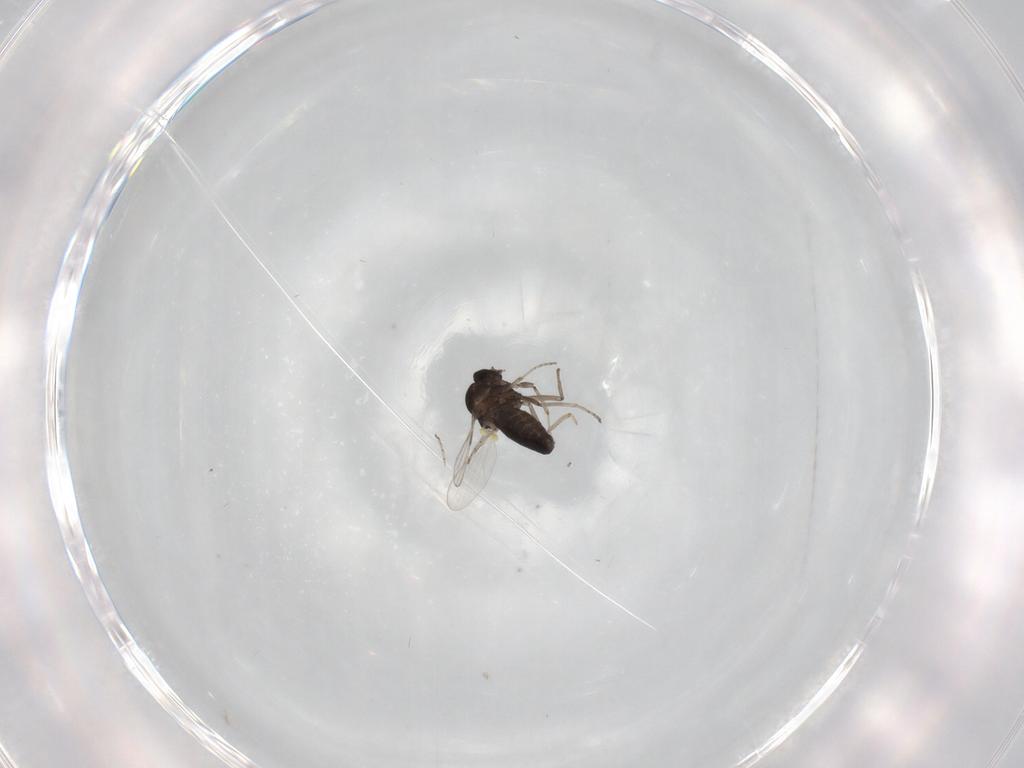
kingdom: Animalia
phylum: Arthropoda
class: Insecta
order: Diptera
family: Ceratopogonidae
